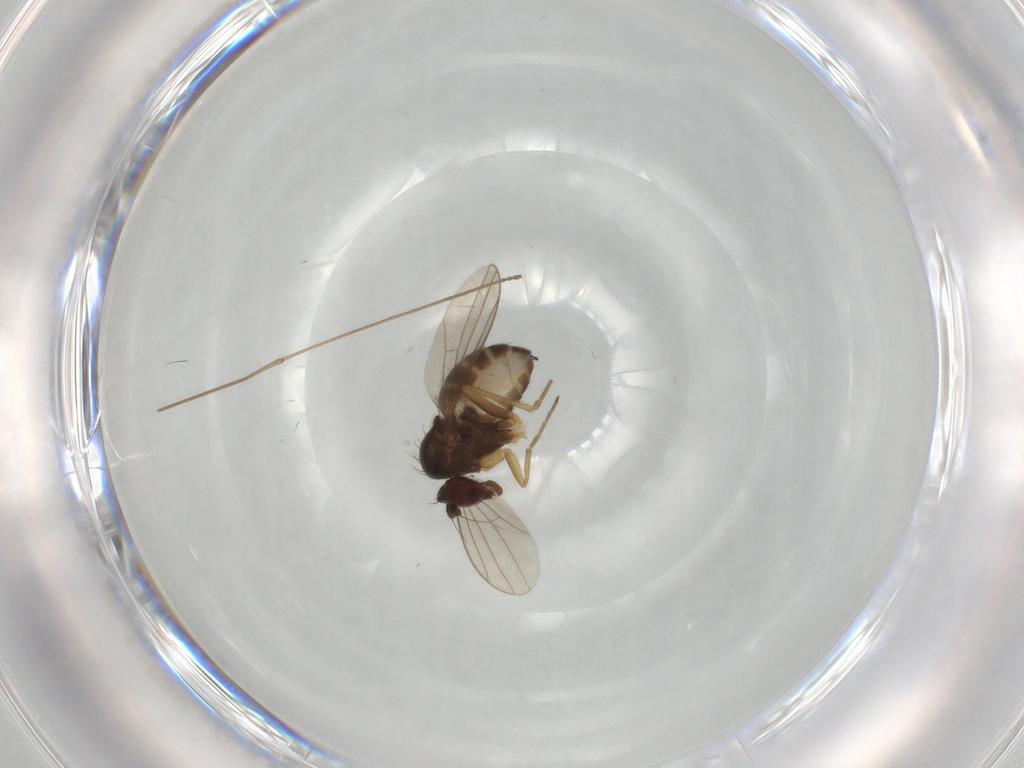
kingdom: Animalia
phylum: Arthropoda
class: Insecta
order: Diptera
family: Dolichopodidae
